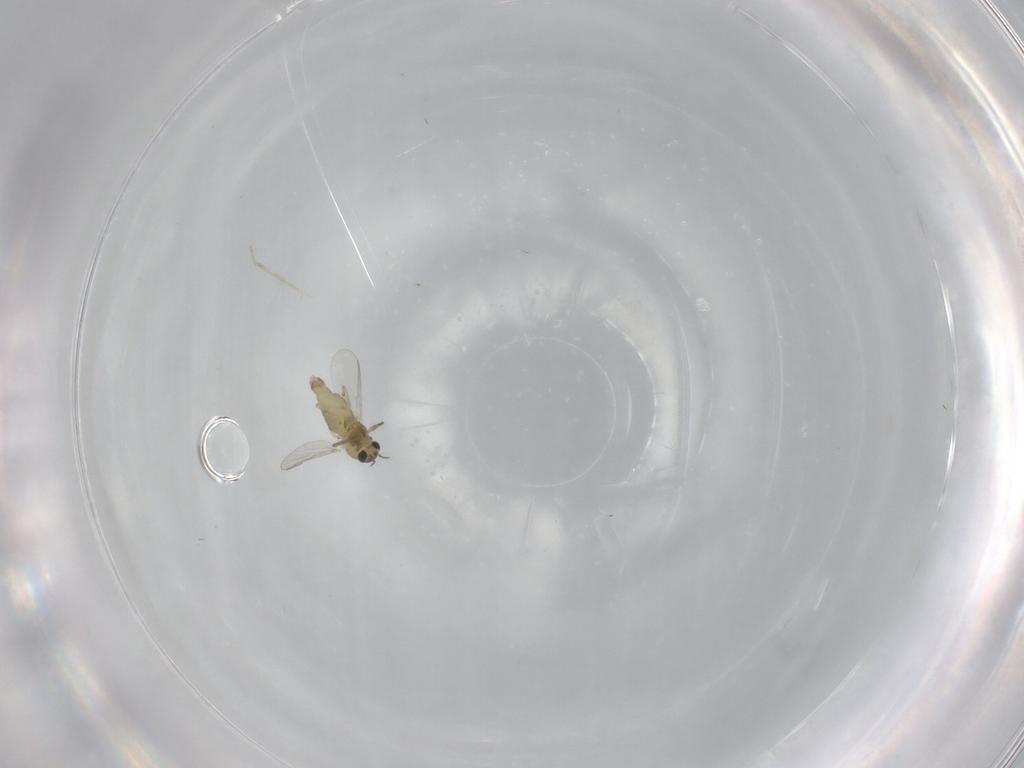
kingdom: Animalia
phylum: Arthropoda
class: Insecta
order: Diptera
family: Chironomidae
